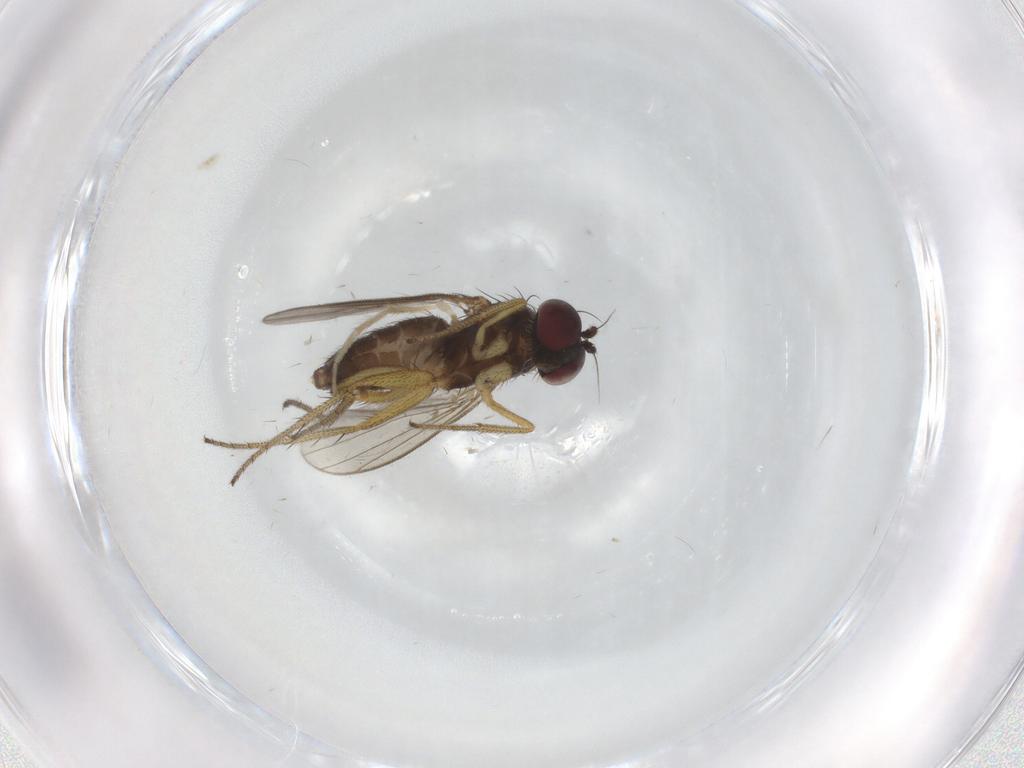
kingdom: Animalia
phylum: Arthropoda
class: Insecta
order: Diptera
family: Dolichopodidae
